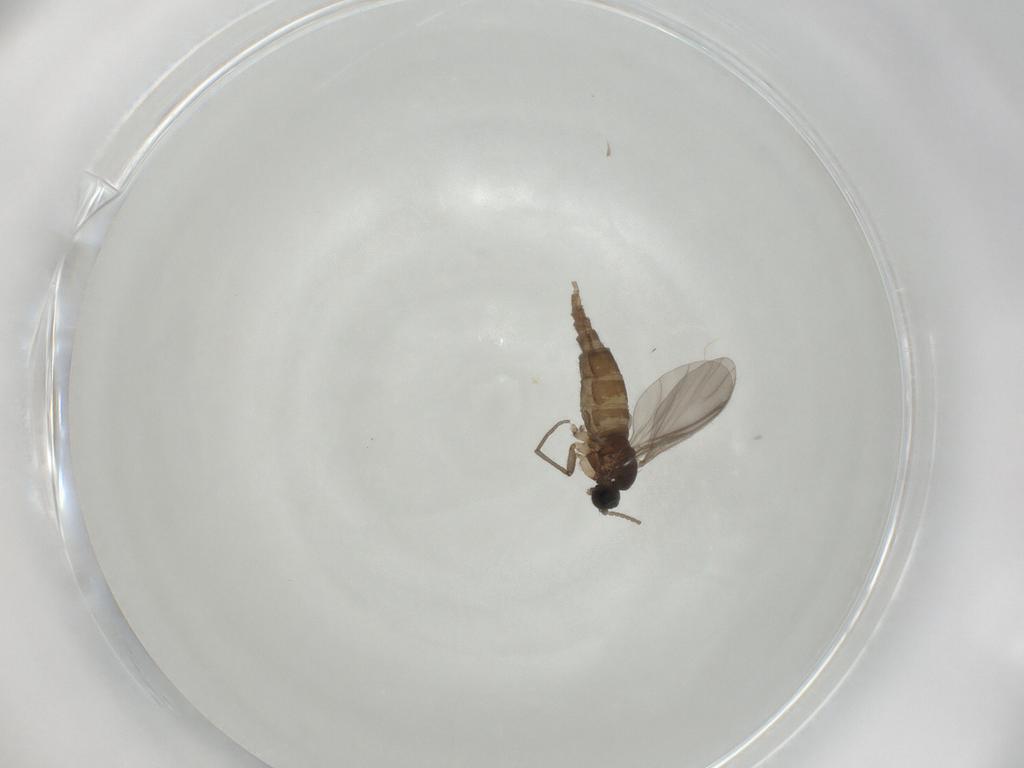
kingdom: Animalia
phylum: Arthropoda
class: Insecta
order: Diptera
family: Sciaridae
